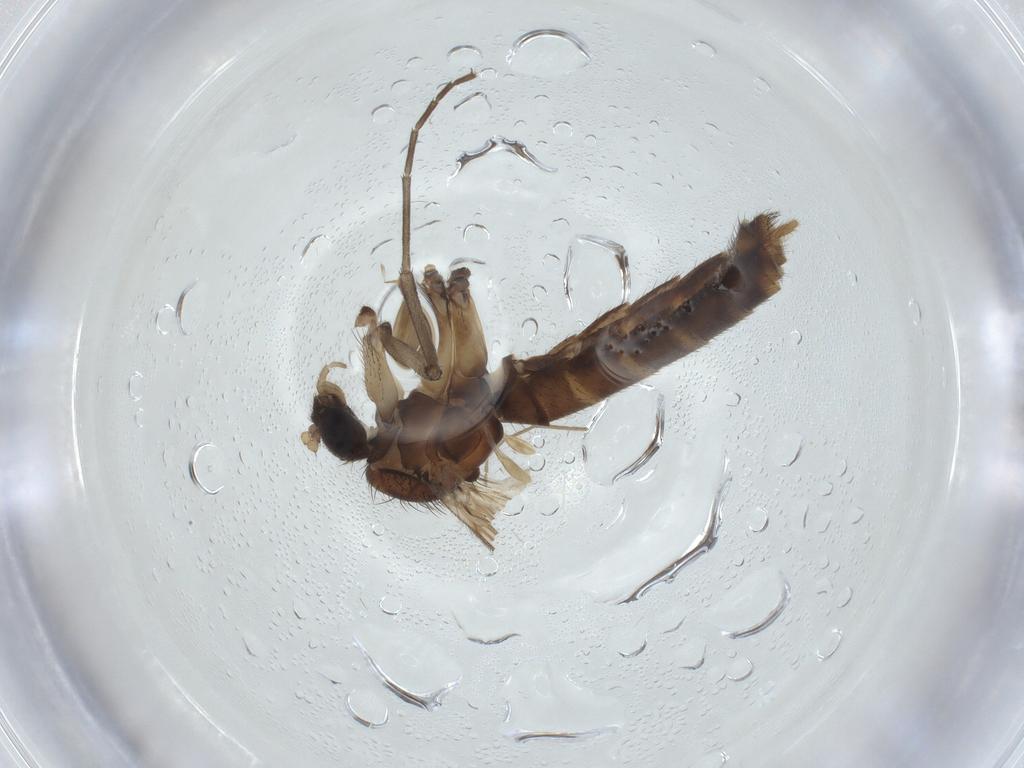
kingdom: Animalia
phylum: Arthropoda
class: Insecta
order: Diptera
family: Mycetophilidae
